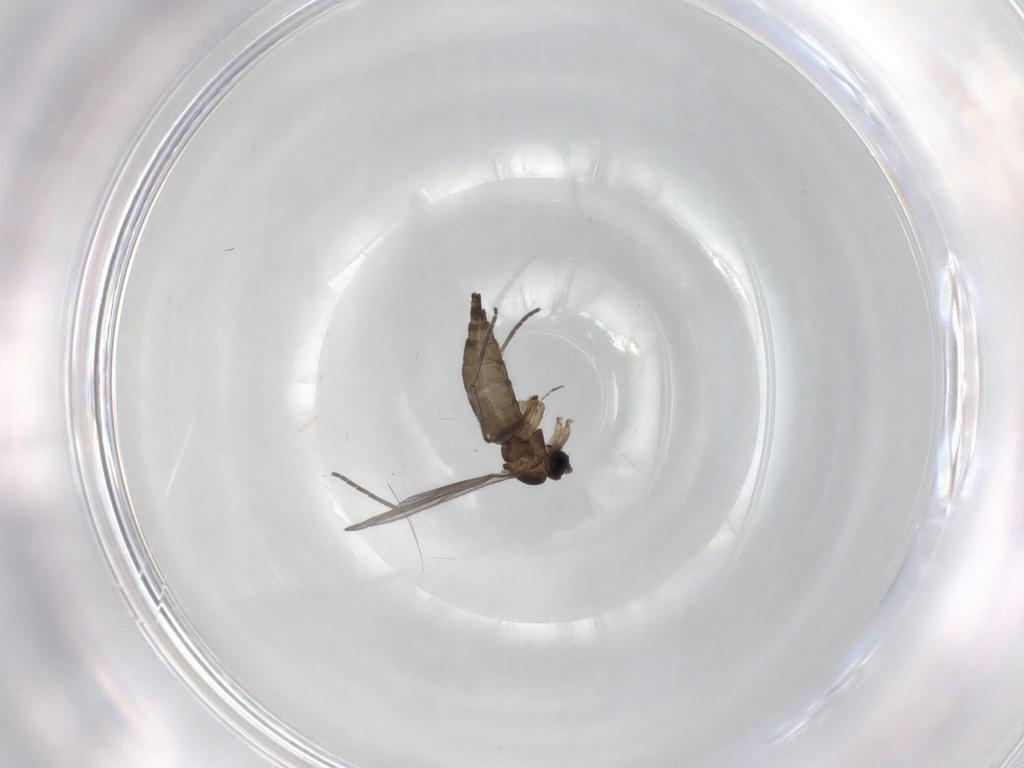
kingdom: Animalia
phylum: Arthropoda
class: Insecta
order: Diptera
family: Sciaridae
